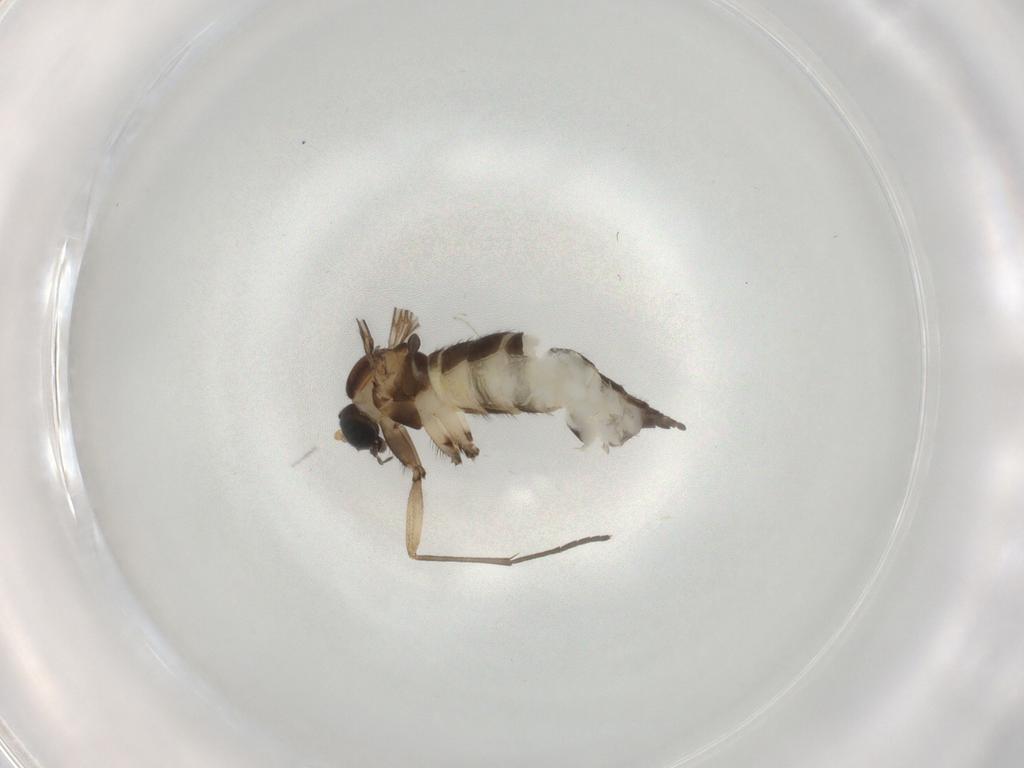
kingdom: Animalia
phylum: Arthropoda
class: Insecta
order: Diptera
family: Sciaridae
